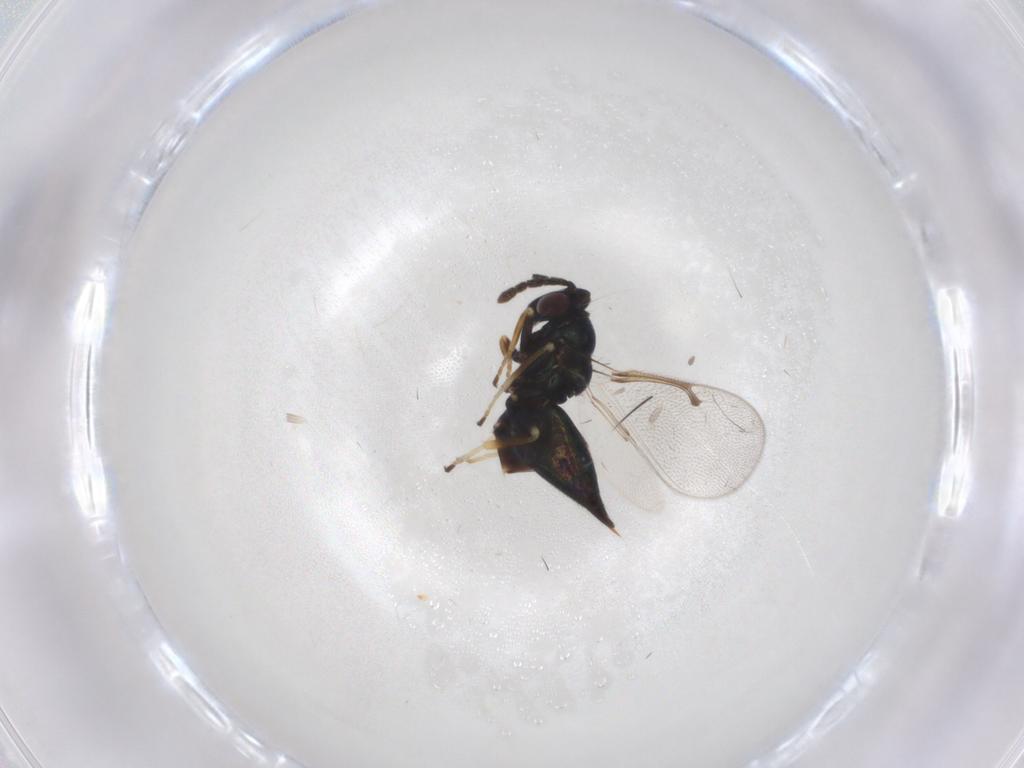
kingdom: Animalia
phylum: Arthropoda
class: Insecta
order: Hymenoptera
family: Eulophidae
